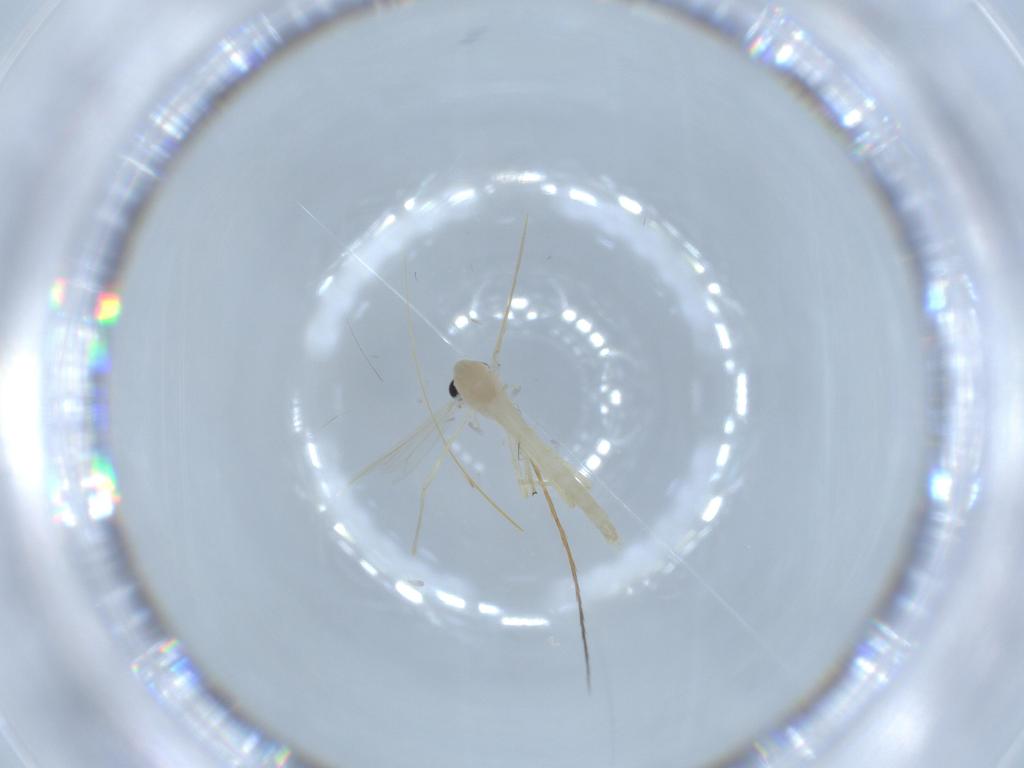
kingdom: Animalia
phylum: Arthropoda
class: Insecta
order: Diptera
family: Chironomidae
